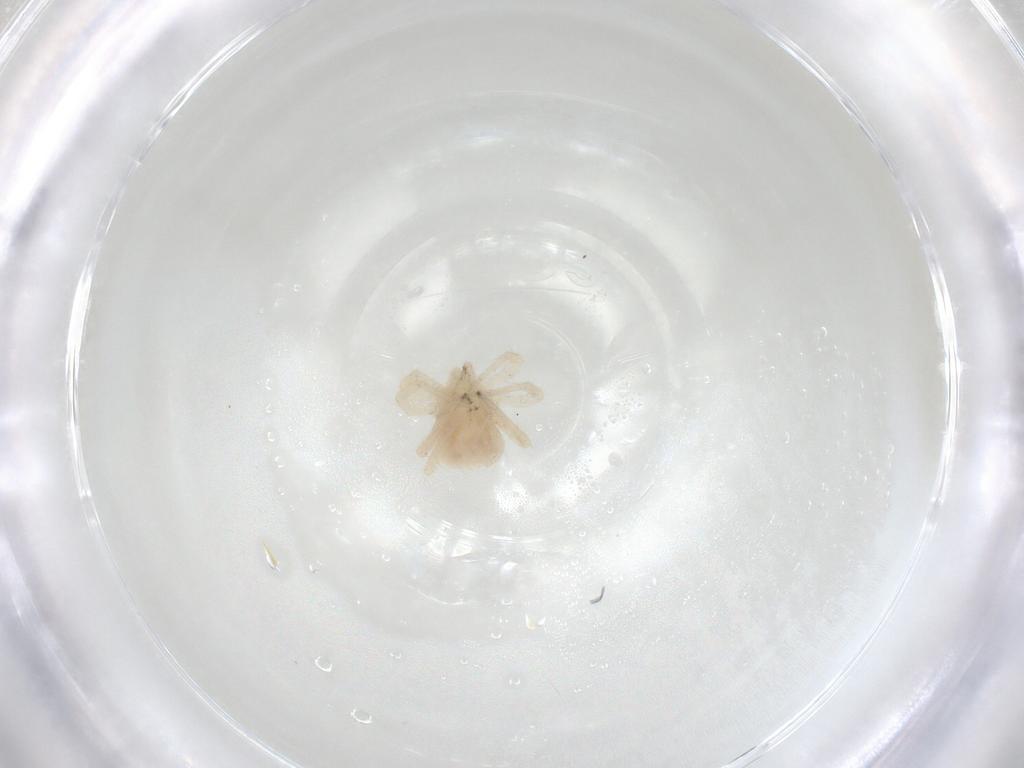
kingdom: Animalia
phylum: Arthropoda
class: Arachnida
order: Trombidiformes
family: Anystidae
